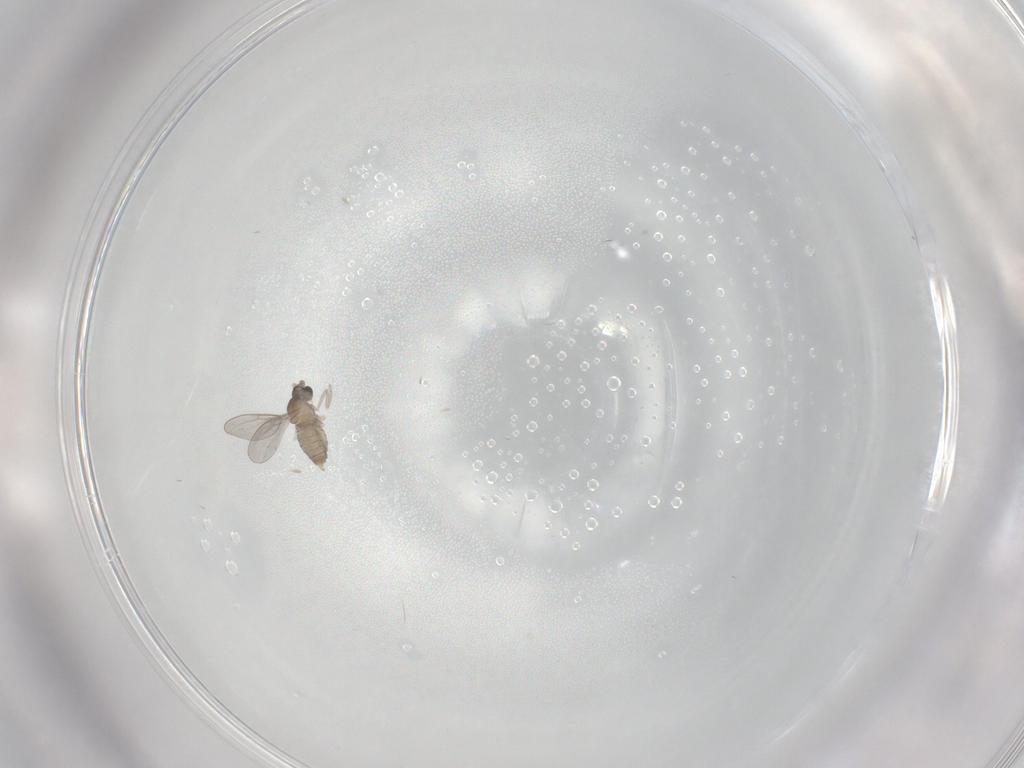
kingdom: Animalia
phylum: Arthropoda
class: Insecta
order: Diptera
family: Cecidomyiidae
